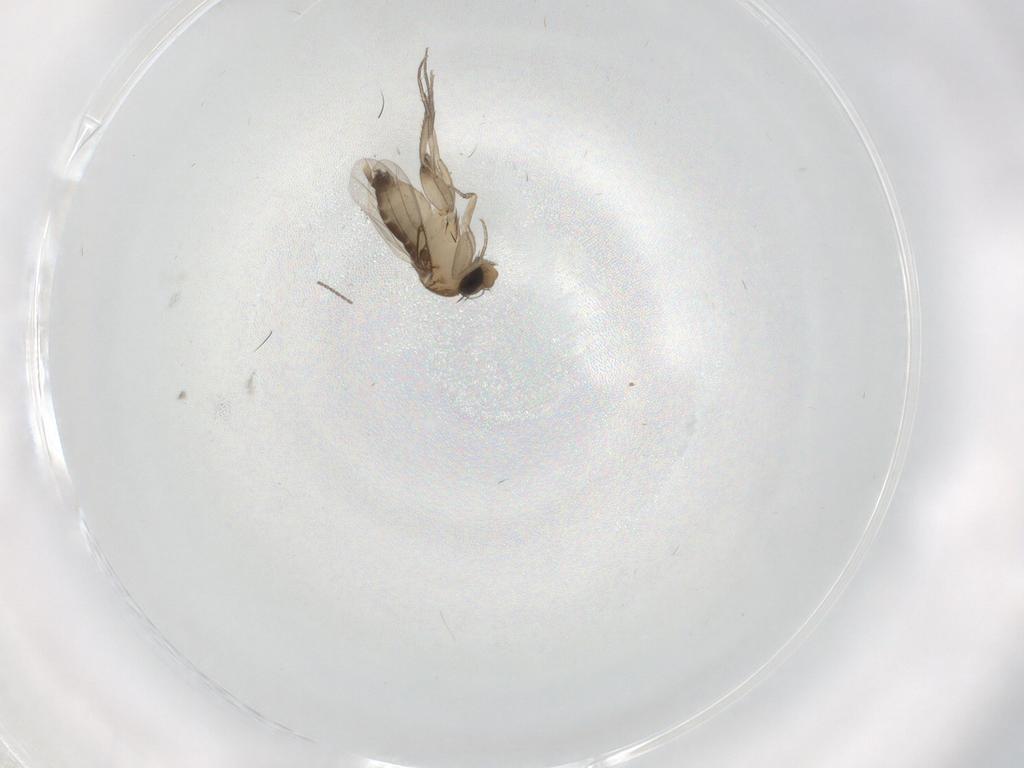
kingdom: Animalia
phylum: Arthropoda
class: Insecta
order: Diptera
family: Phoridae
